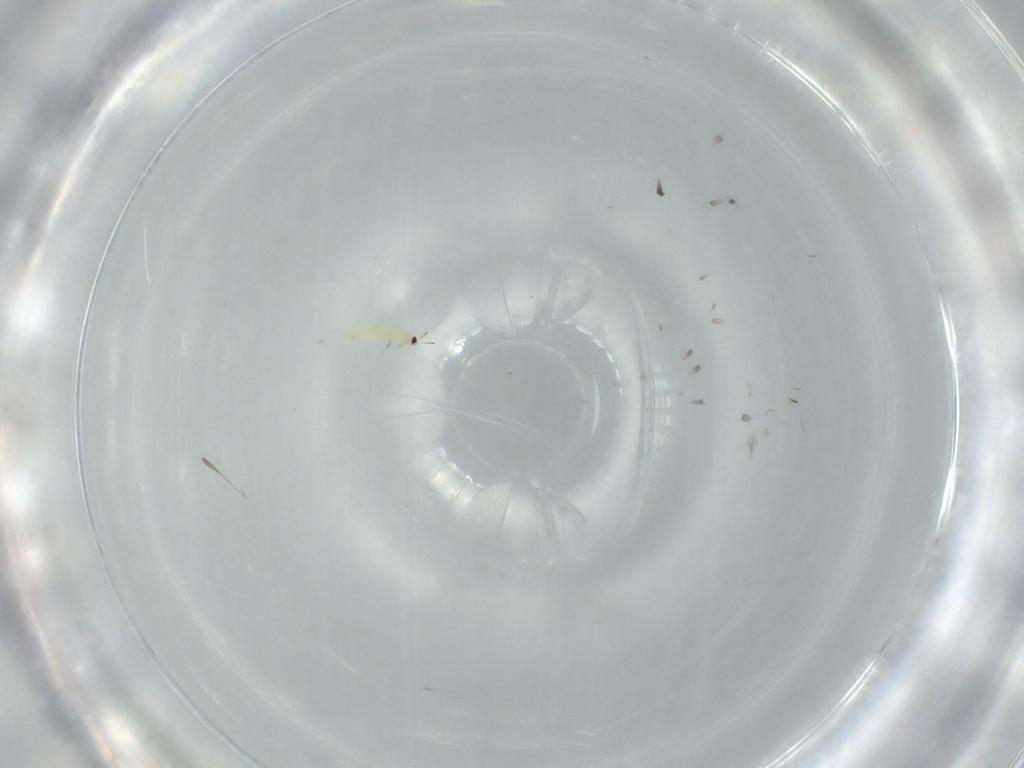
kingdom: Animalia
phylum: Arthropoda
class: Insecta
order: Thysanoptera
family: Thripidae
